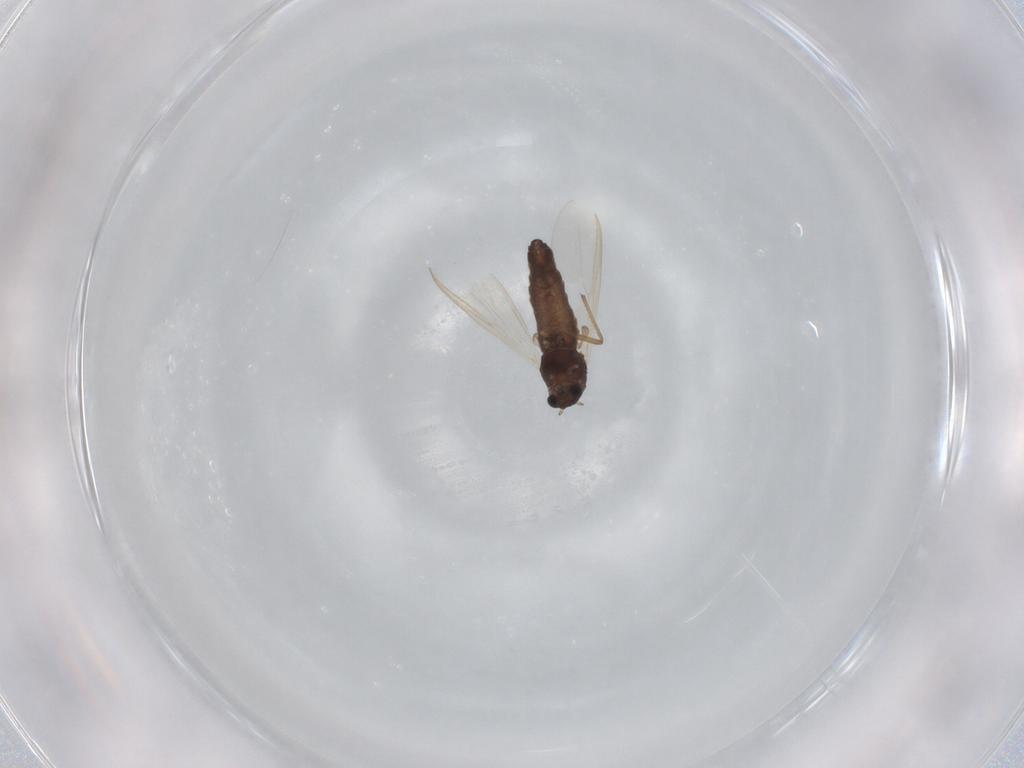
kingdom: Animalia
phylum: Arthropoda
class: Insecta
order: Diptera
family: Chironomidae
